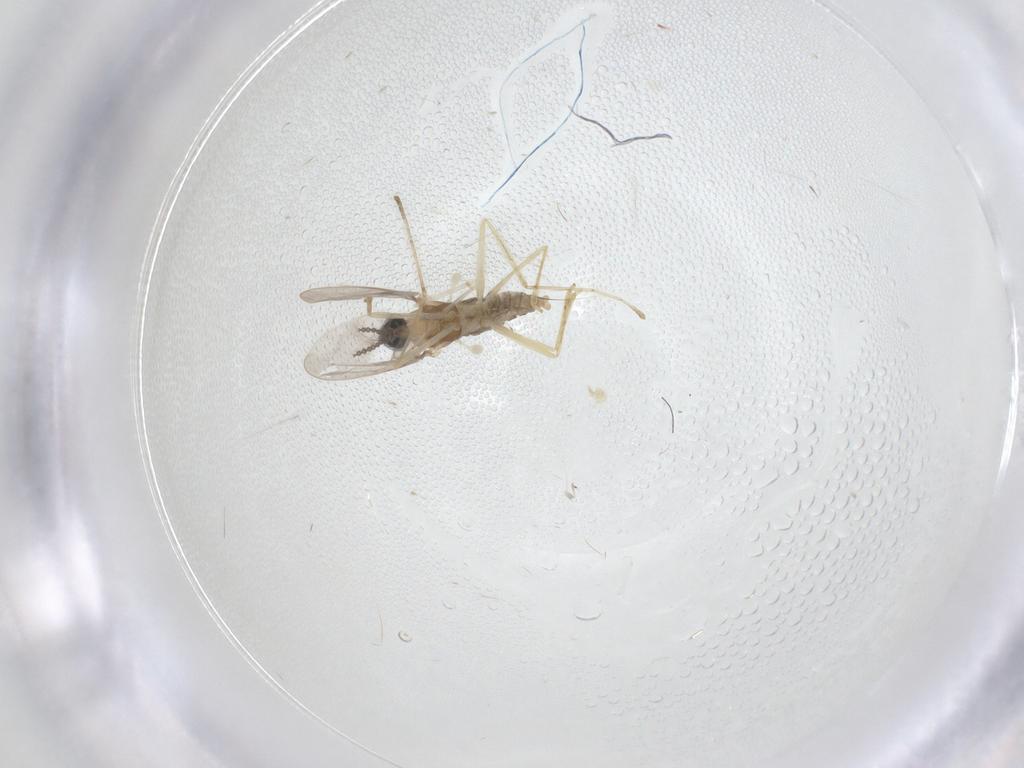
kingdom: Animalia
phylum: Arthropoda
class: Insecta
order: Diptera
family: Cecidomyiidae
